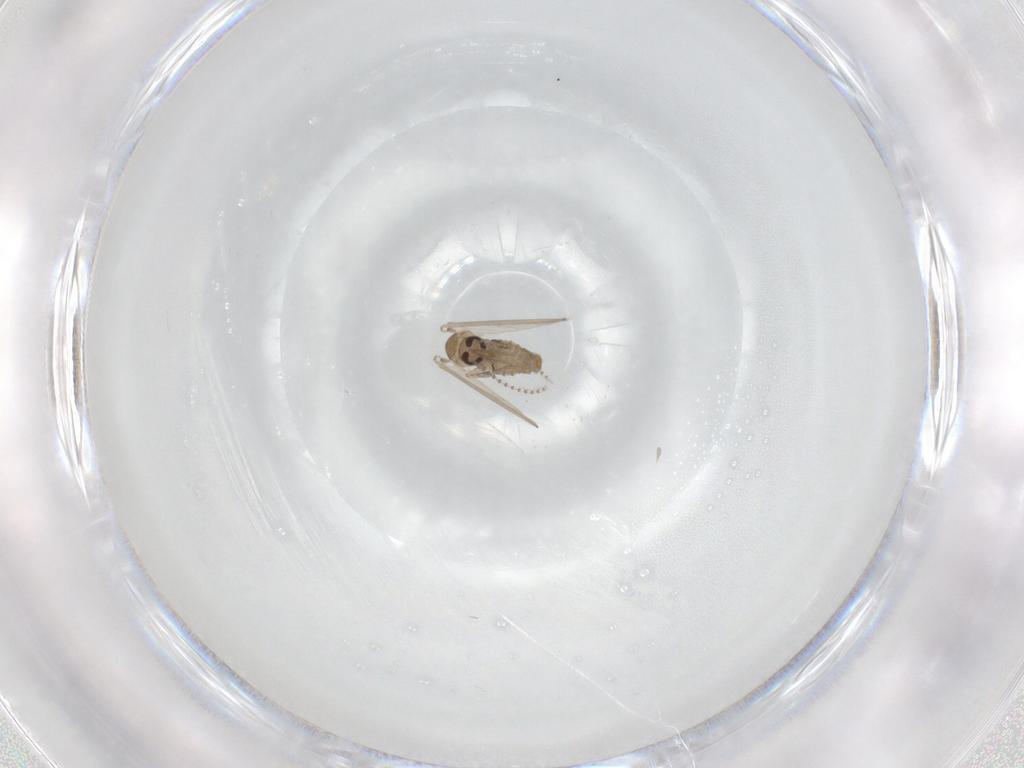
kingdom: Animalia
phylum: Arthropoda
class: Insecta
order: Diptera
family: Psychodidae
